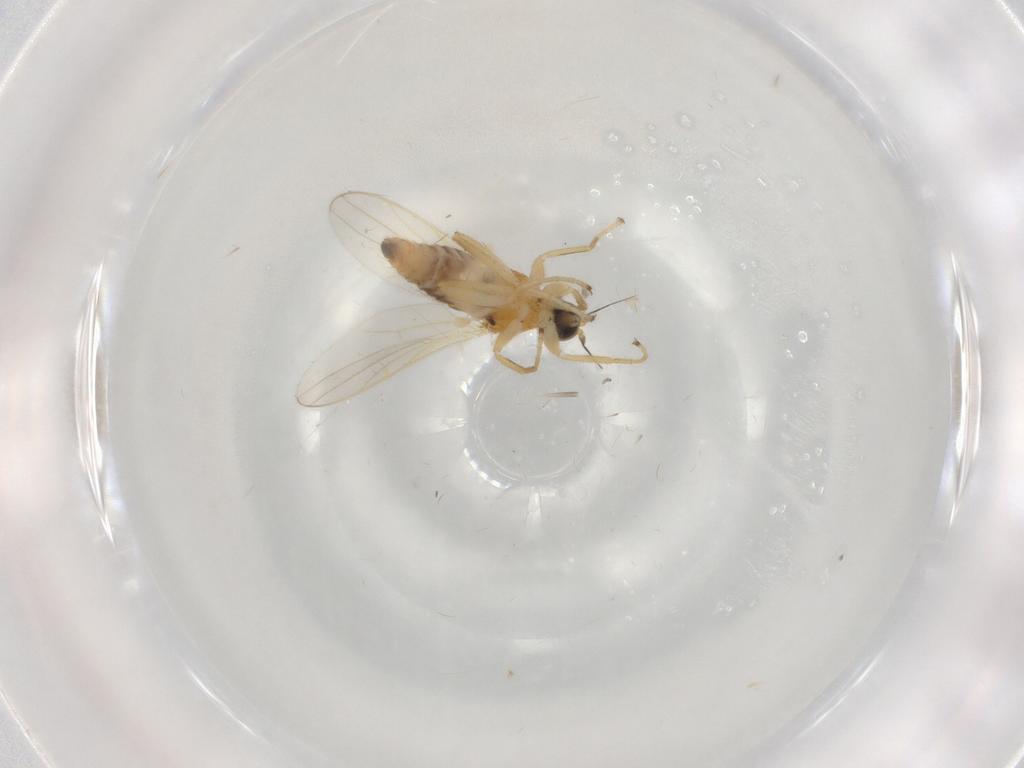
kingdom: Animalia
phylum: Arthropoda
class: Insecta
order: Diptera
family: Hybotidae
